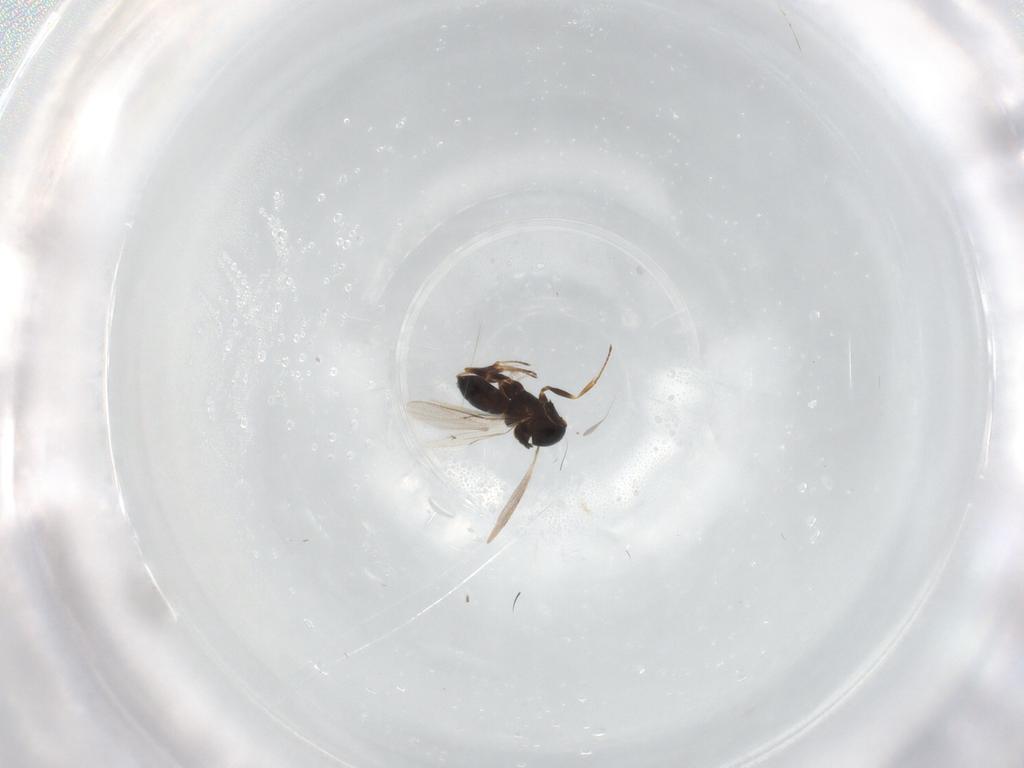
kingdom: Animalia
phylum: Arthropoda
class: Insecta
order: Hymenoptera
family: Scelionidae
